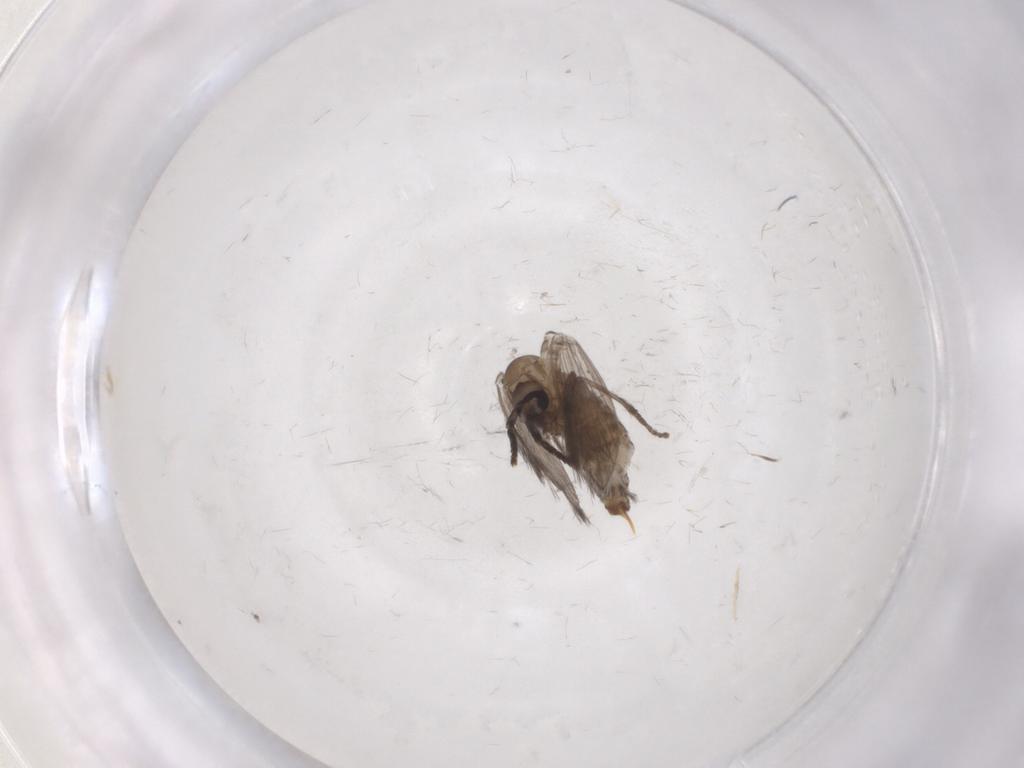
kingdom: Animalia
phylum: Arthropoda
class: Insecta
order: Diptera
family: Psychodidae
